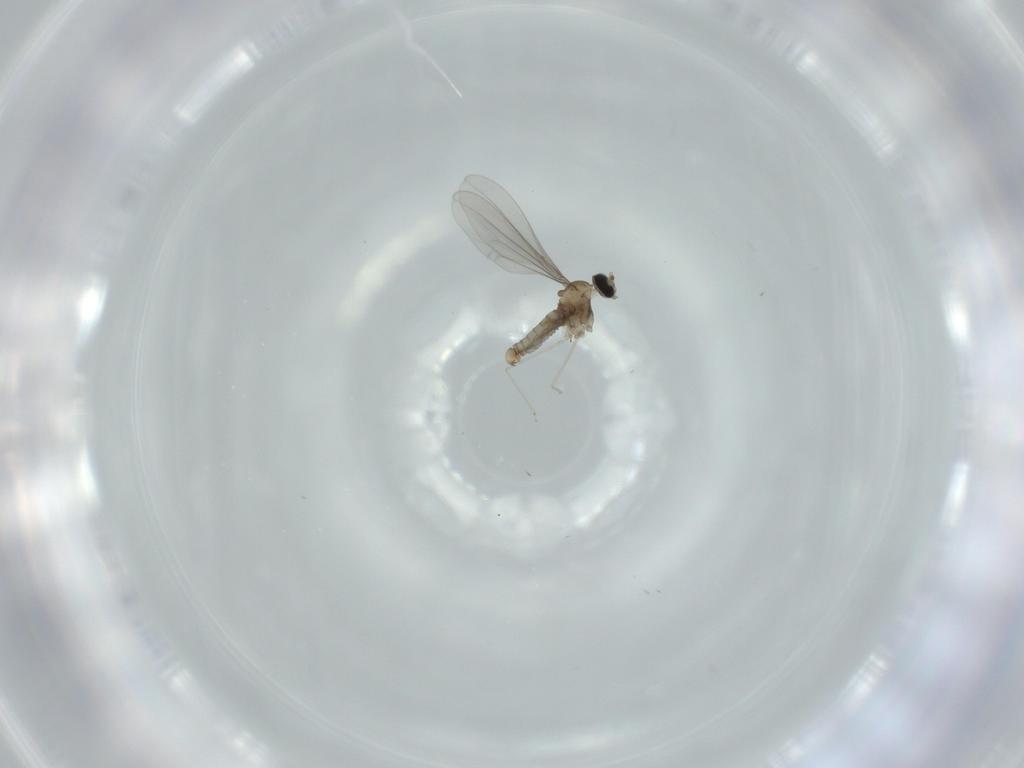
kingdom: Animalia
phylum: Arthropoda
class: Insecta
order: Diptera
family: Cecidomyiidae
